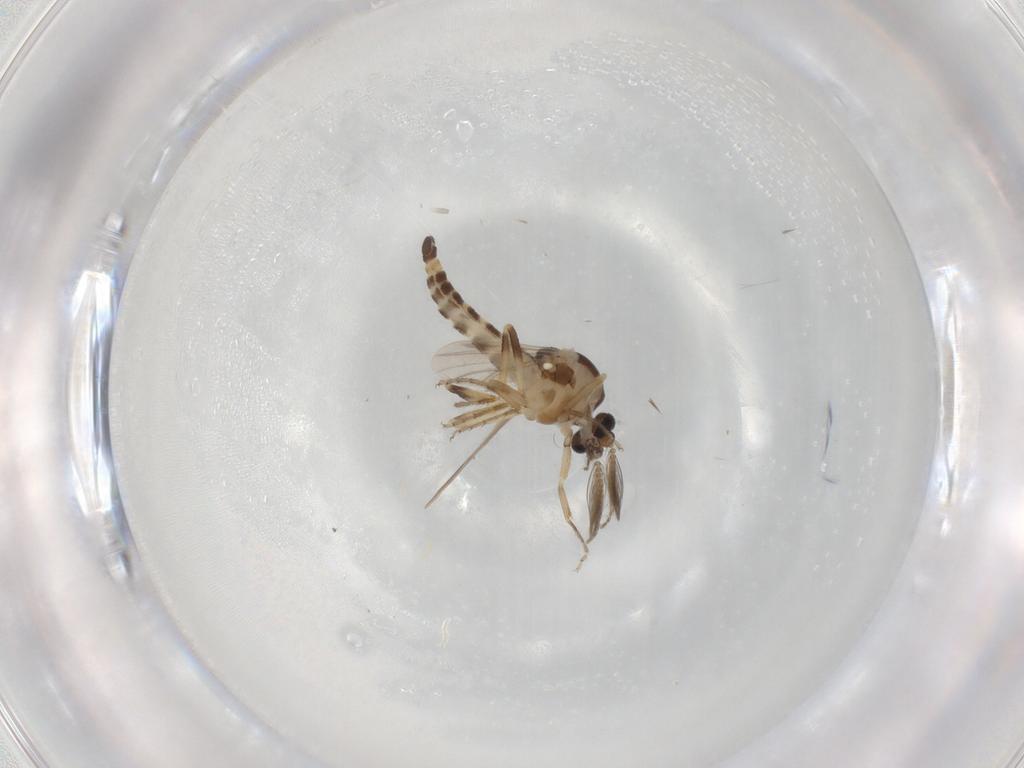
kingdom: Animalia
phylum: Arthropoda
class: Insecta
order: Diptera
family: Ceratopogonidae
